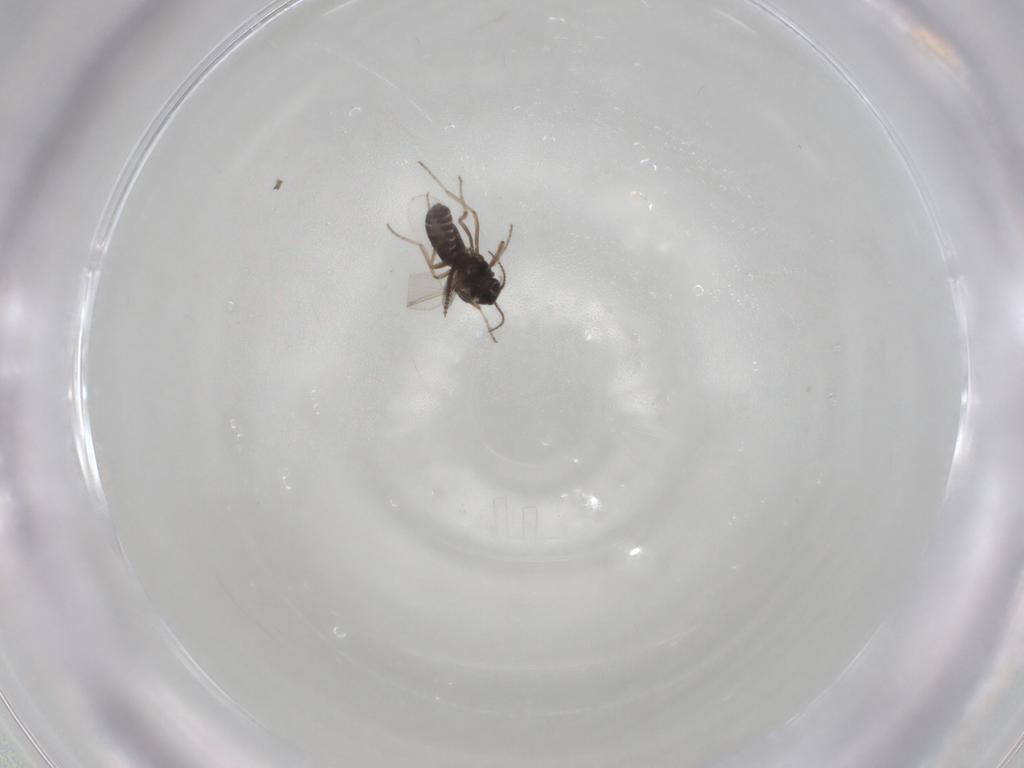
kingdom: Animalia
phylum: Arthropoda
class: Insecta
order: Diptera
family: Ceratopogonidae
